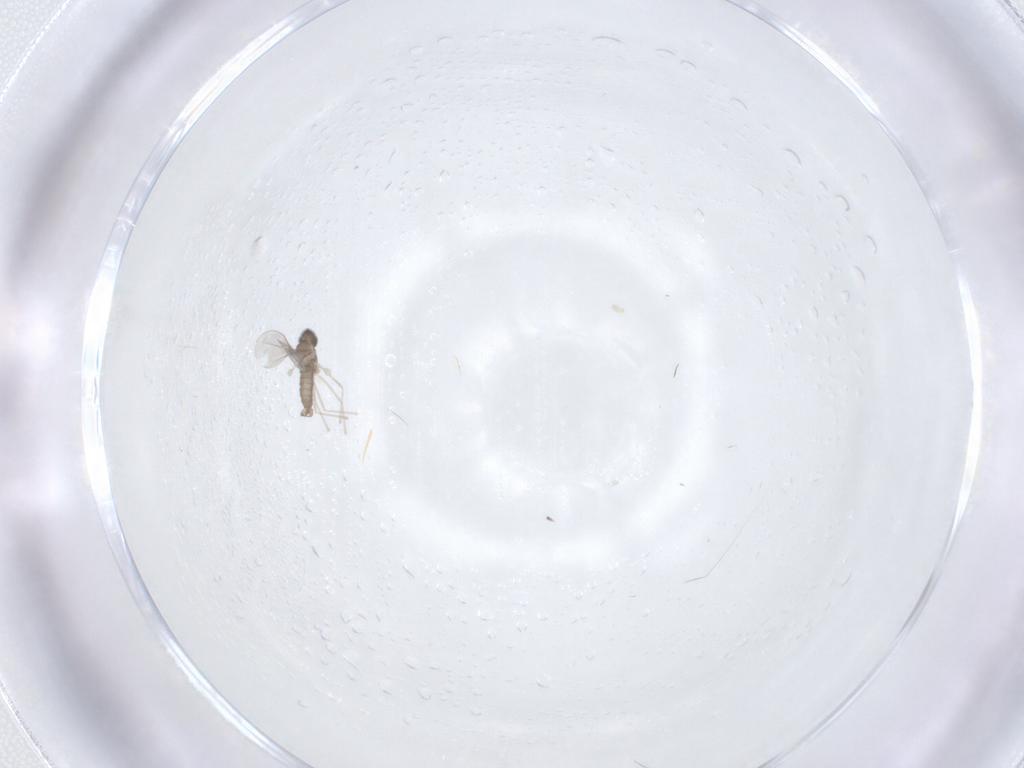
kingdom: Animalia
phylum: Arthropoda
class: Insecta
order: Diptera
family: Cecidomyiidae
